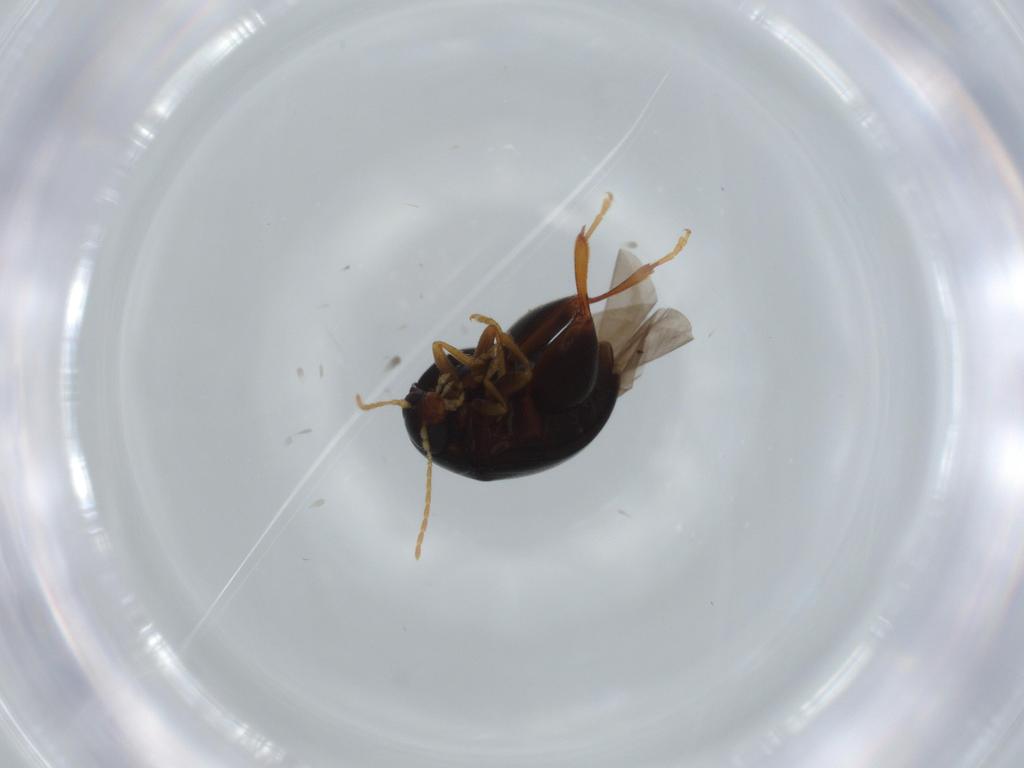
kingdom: Animalia
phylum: Arthropoda
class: Insecta
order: Coleoptera
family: Chrysomelidae
